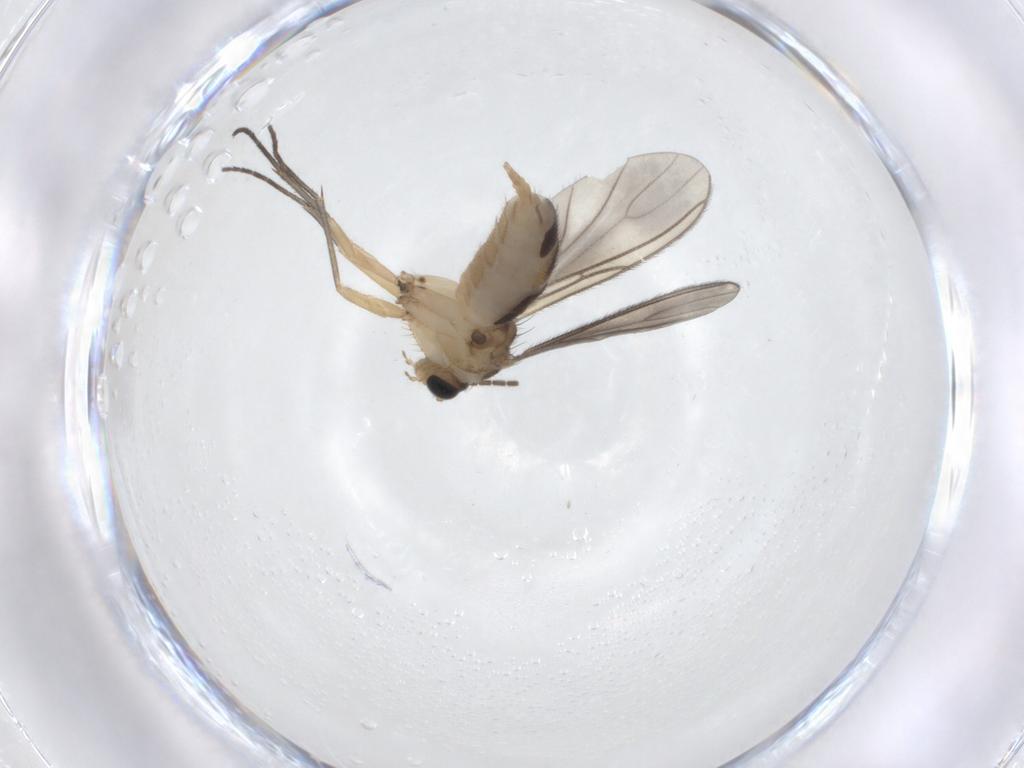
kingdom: Animalia
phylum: Arthropoda
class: Insecta
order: Diptera
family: Sciaridae
